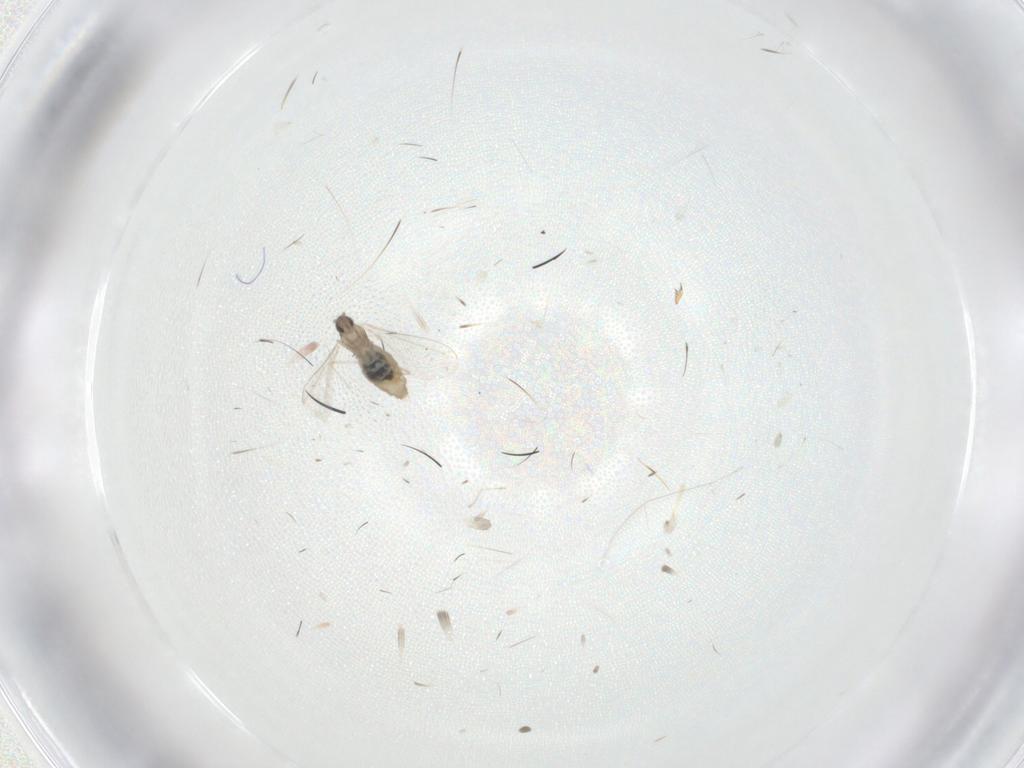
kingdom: Animalia
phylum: Arthropoda
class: Insecta
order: Diptera
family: Cecidomyiidae
